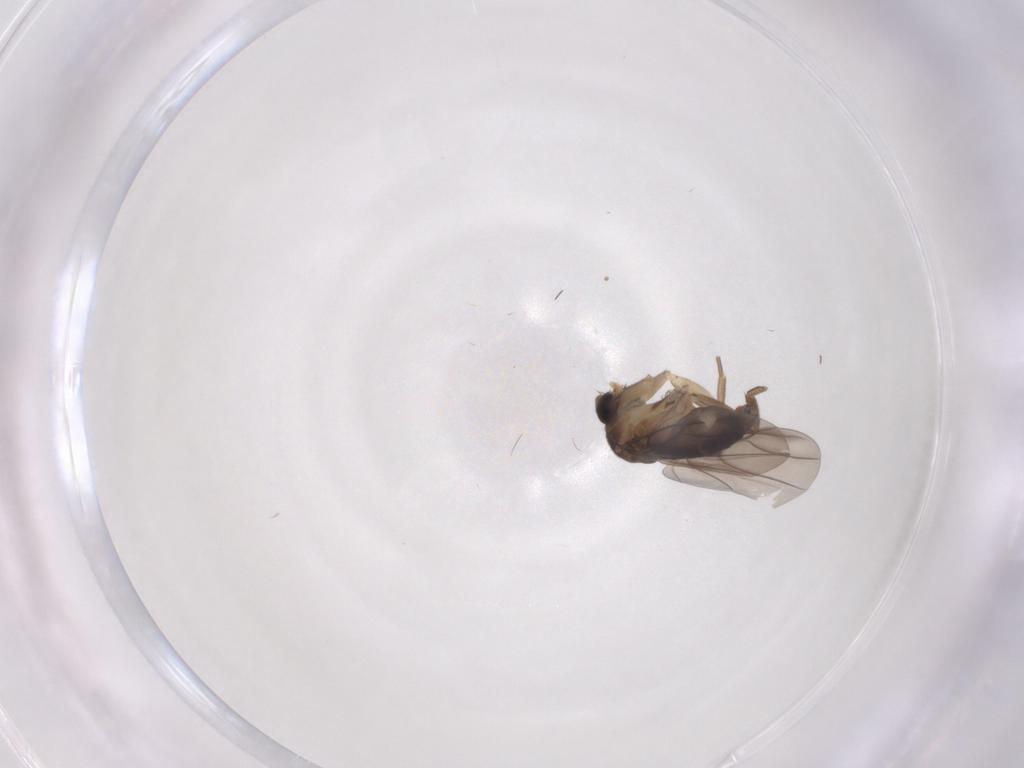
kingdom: Animalia
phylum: Arthropoda
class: Insecta
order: Diptera
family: Phoridae
